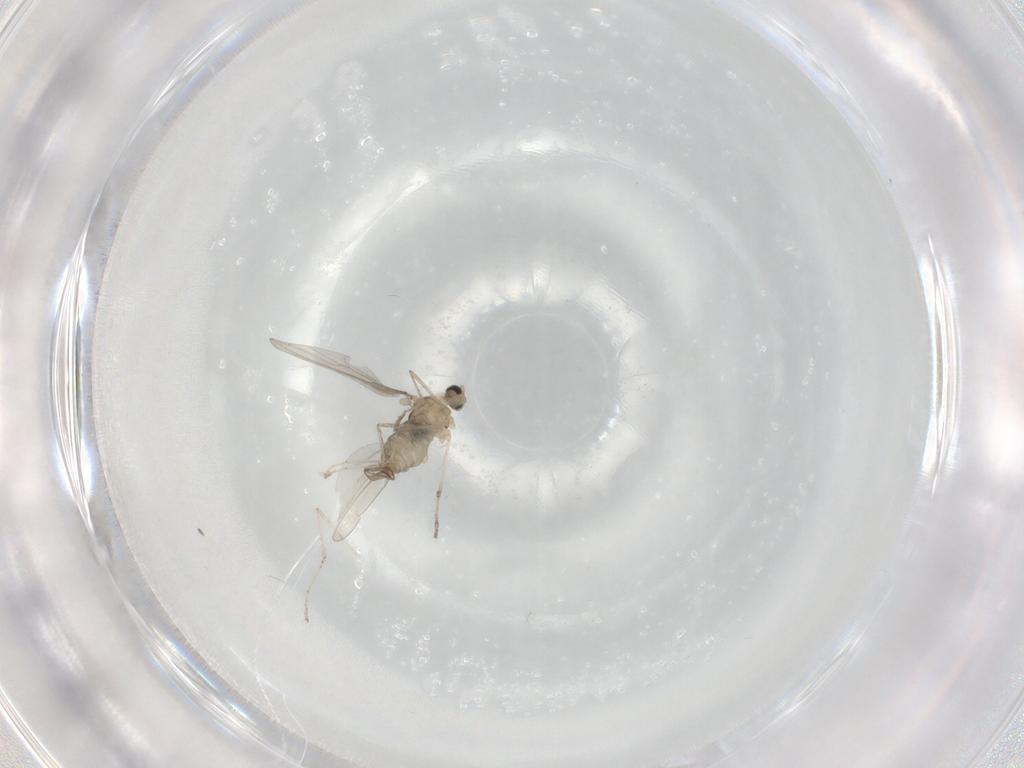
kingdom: Animalia
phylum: Arthropoda
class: Insecta
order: Diptera
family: Cecidomyiidae
